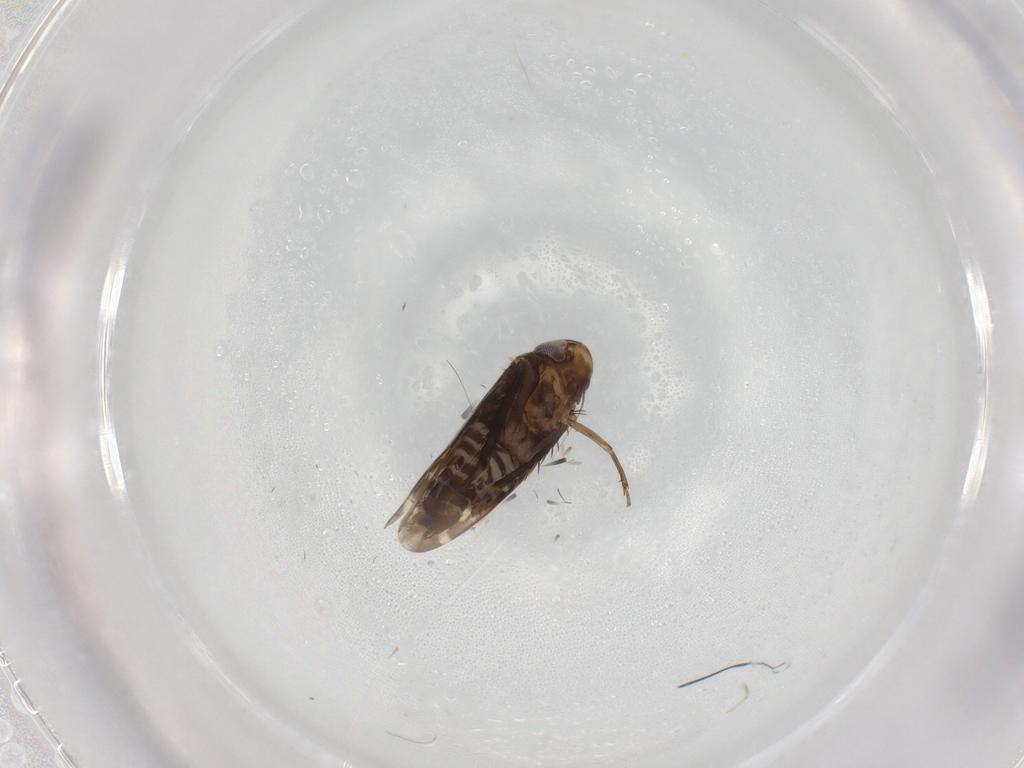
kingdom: Animalia
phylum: Arthropoda
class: Insecta
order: Hemiptera
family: Cicadellidae
